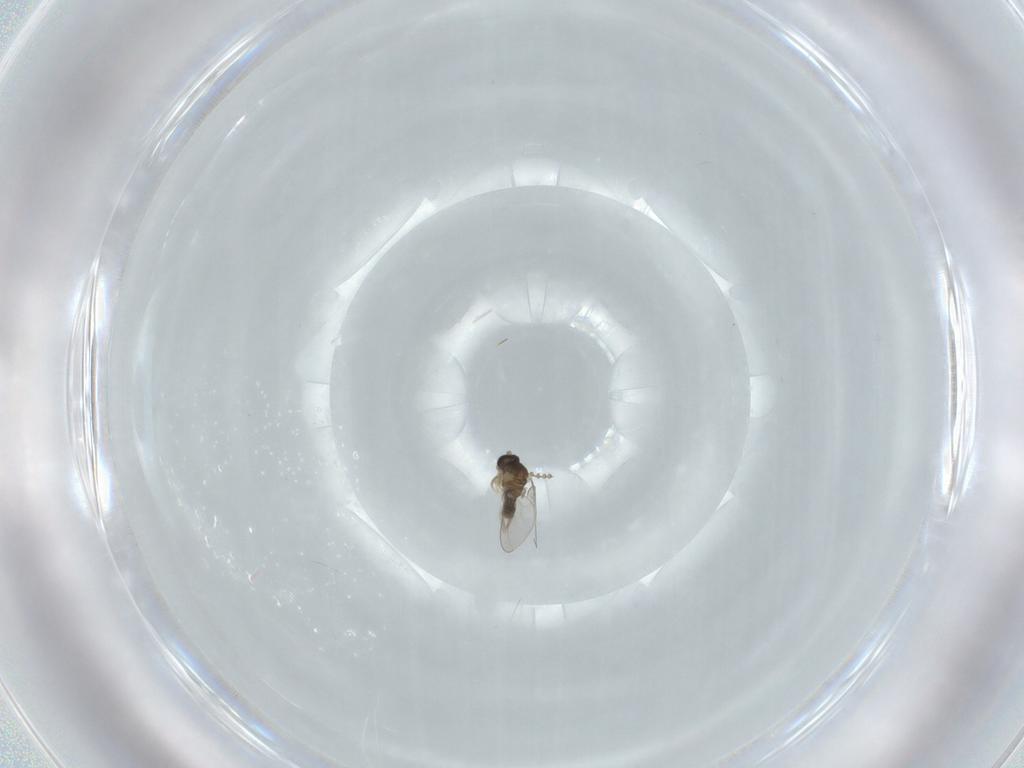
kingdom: Animalia
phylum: Arthropoda
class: Insecta
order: Diptera
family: Cecidomyiidae
